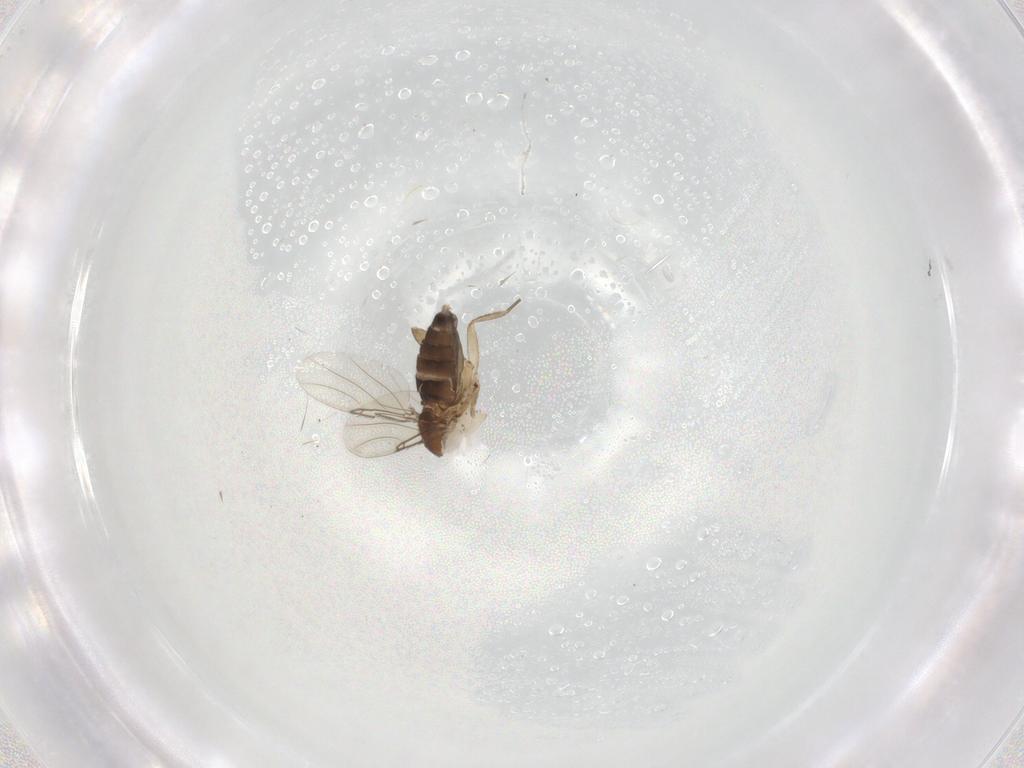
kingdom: Animalia
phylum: Arthropoda
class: Insecta
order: Diptera
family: Phoridae
